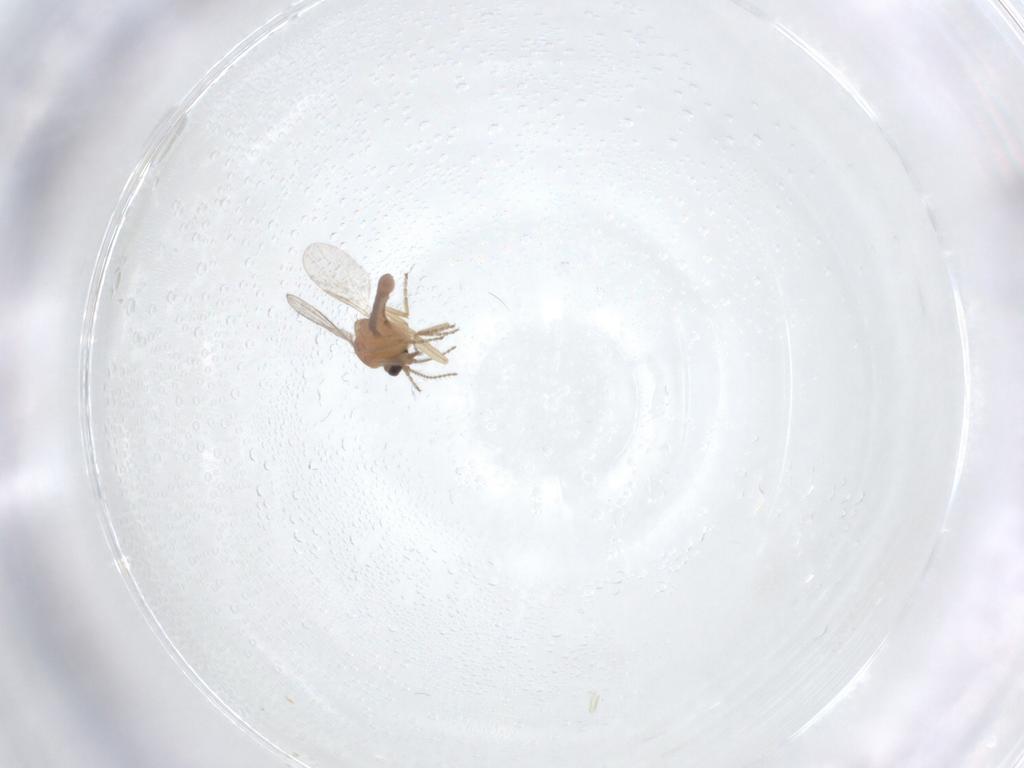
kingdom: Animalia
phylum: Arthropoda
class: Insecta
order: Diptera
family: Ceratopogonidae
